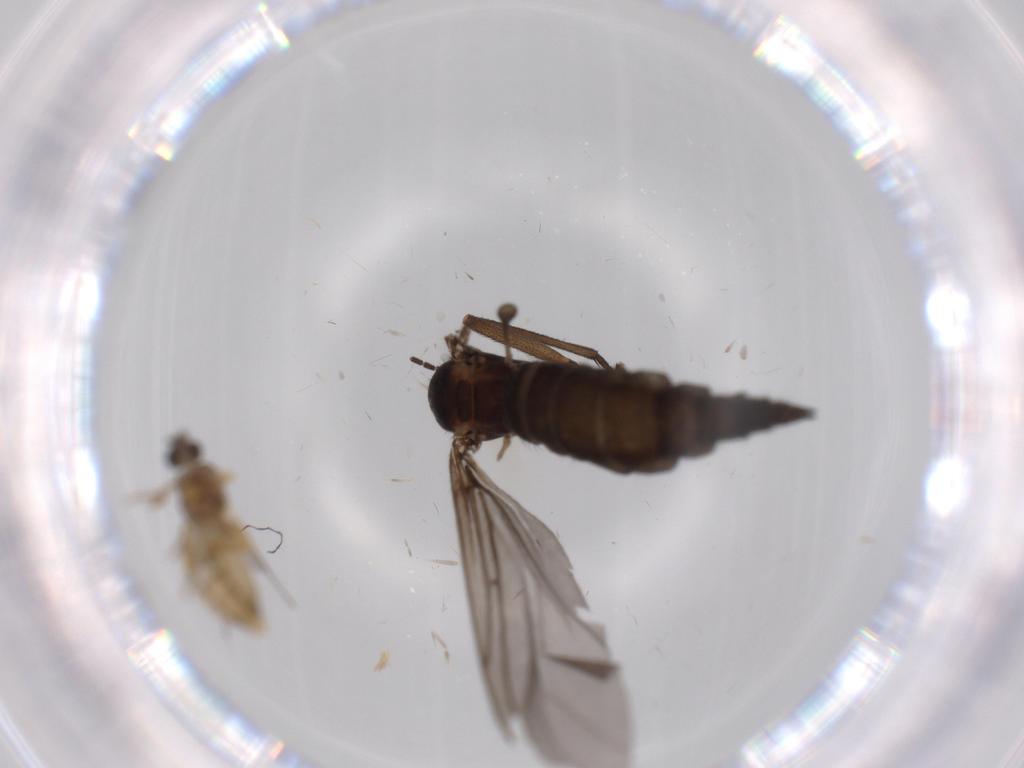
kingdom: Animalia
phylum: Arthropoda
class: Insecta
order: Diptera
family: Sciaridae
